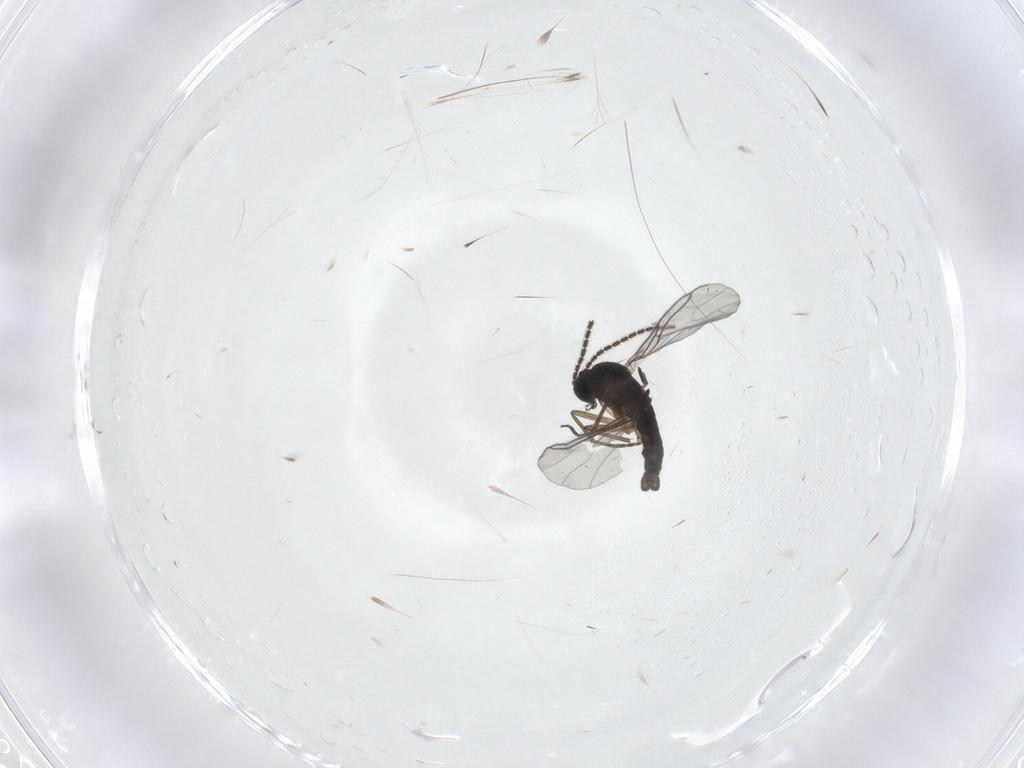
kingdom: Animalia
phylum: Arthropoda
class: Insecta
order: Diptera
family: Sciaridae
